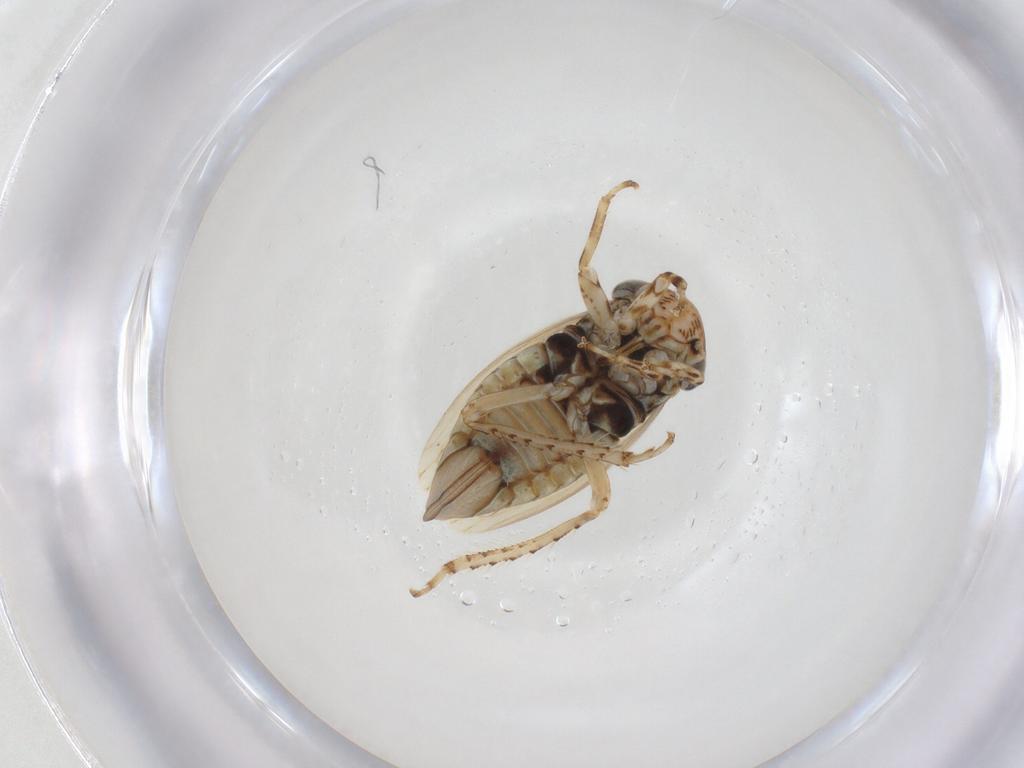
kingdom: Animalia
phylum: Arthropoda
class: Insecta
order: Hemiptera
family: Cicadellidae
